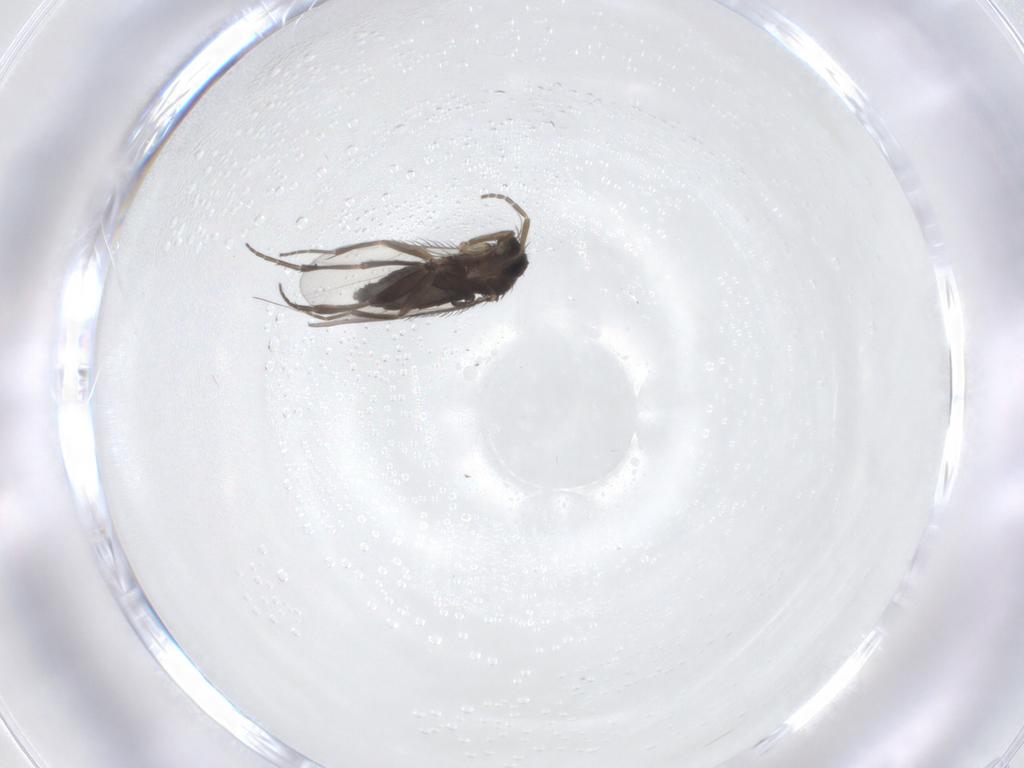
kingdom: Animalia
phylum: Arthropoda
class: Insecta
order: Diptera
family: Phoridae
